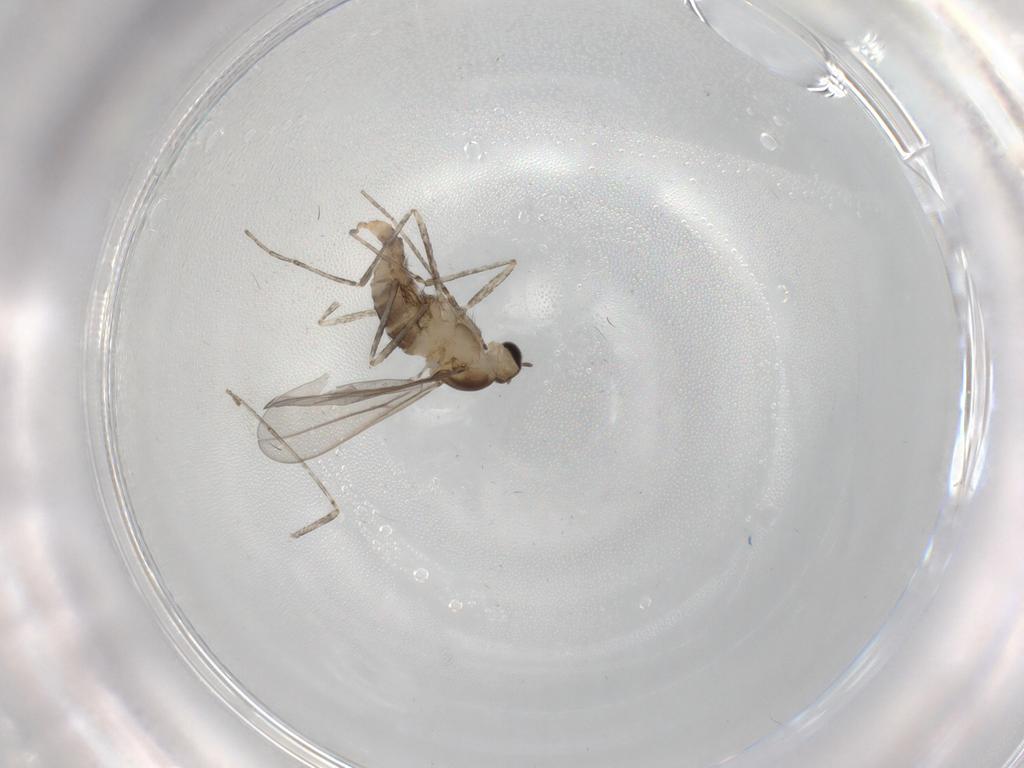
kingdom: Animalia
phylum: Arthropoda
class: Insecta
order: Diptera
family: Cecidomyiidae
